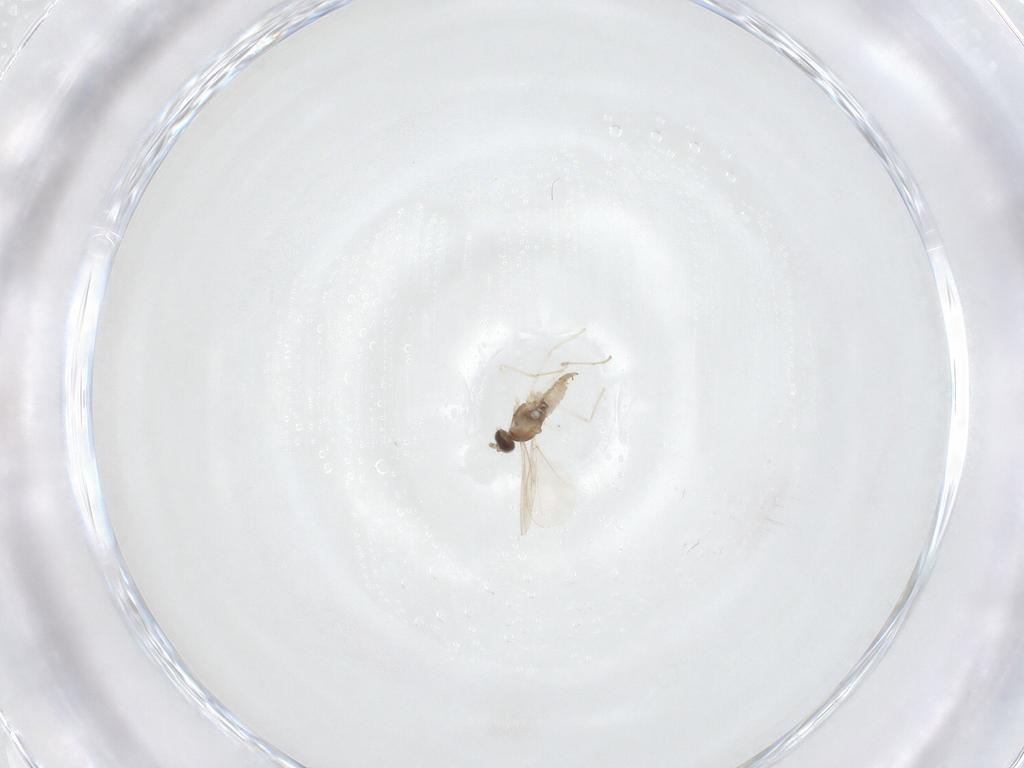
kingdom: Animalia
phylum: Arthropoda
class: Insecta
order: Diptera
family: Cecidomyiidae
